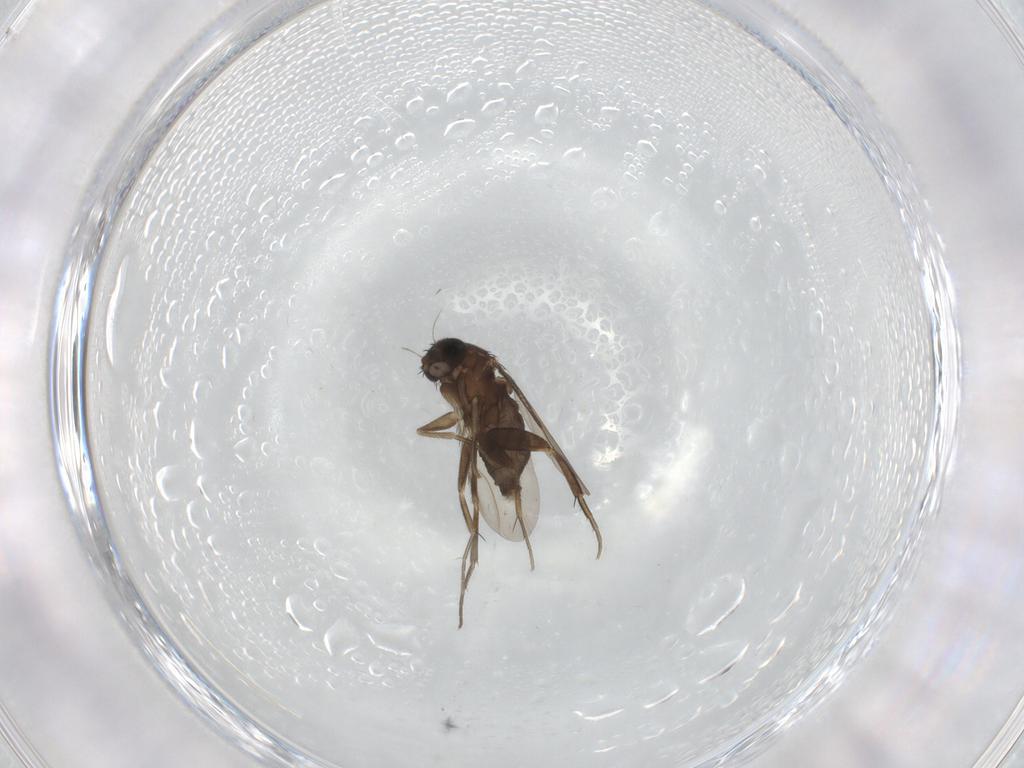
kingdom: Animalia
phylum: Arthropoda
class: Insecta
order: Diptera
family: Phoridae
